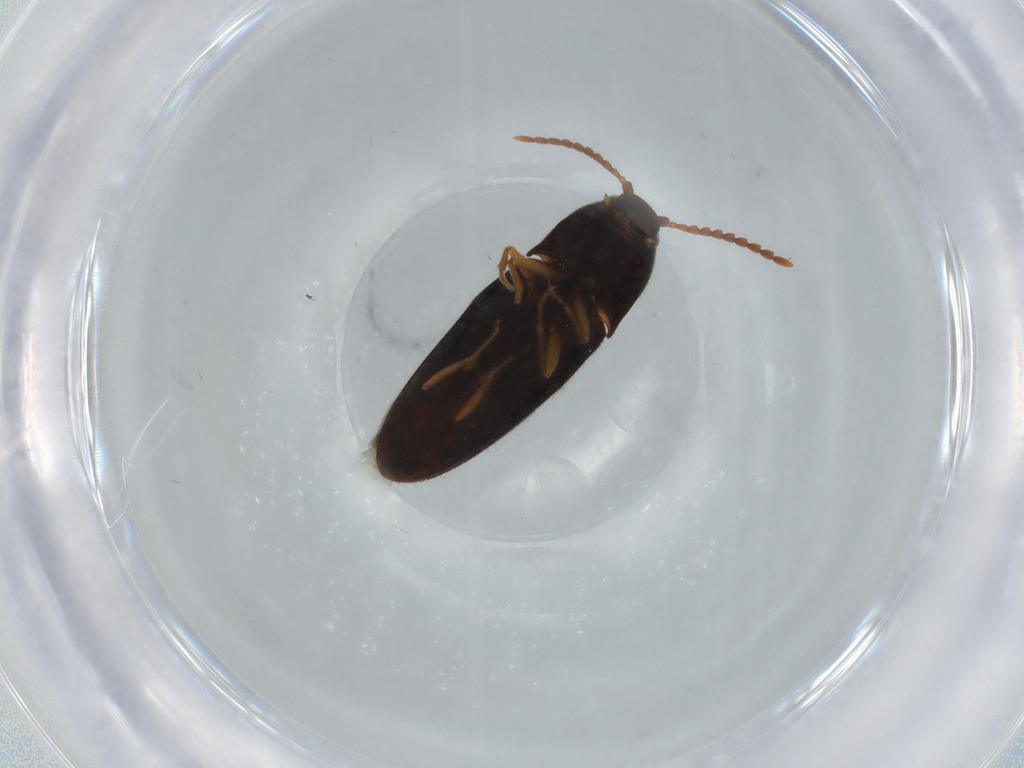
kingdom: Animalia
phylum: Arthropoda
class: Insecta
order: Coleoptera
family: Elateridae
